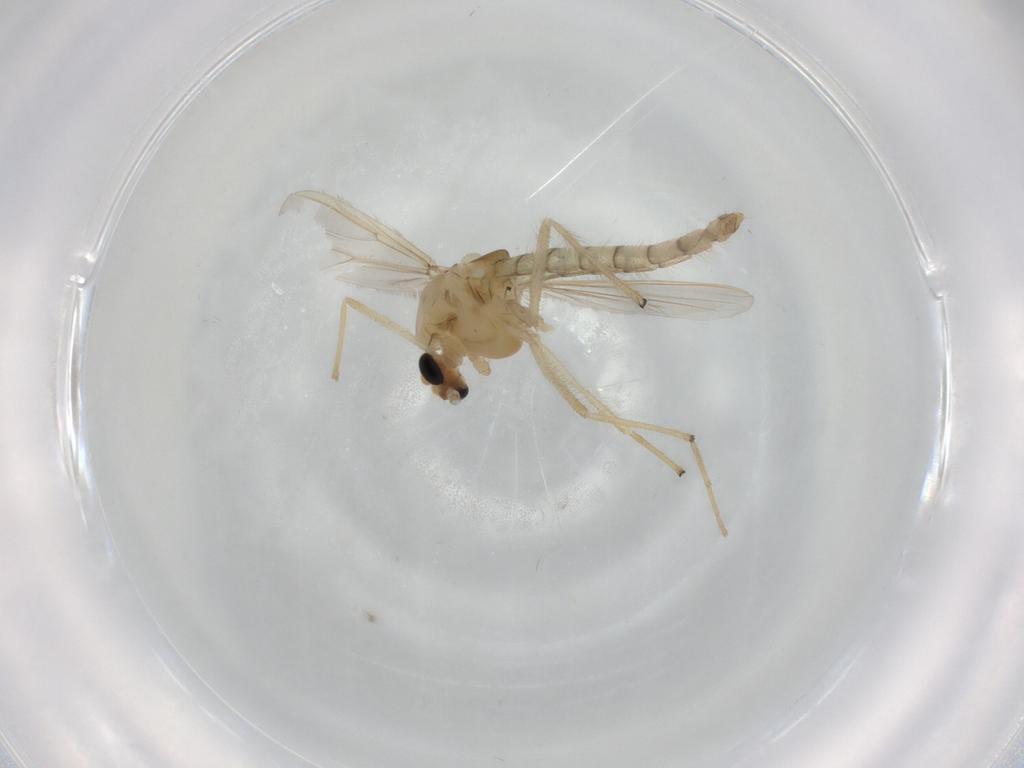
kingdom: Animalia
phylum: Arthropoda
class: Insecta
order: Diptera
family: Chironomidae
